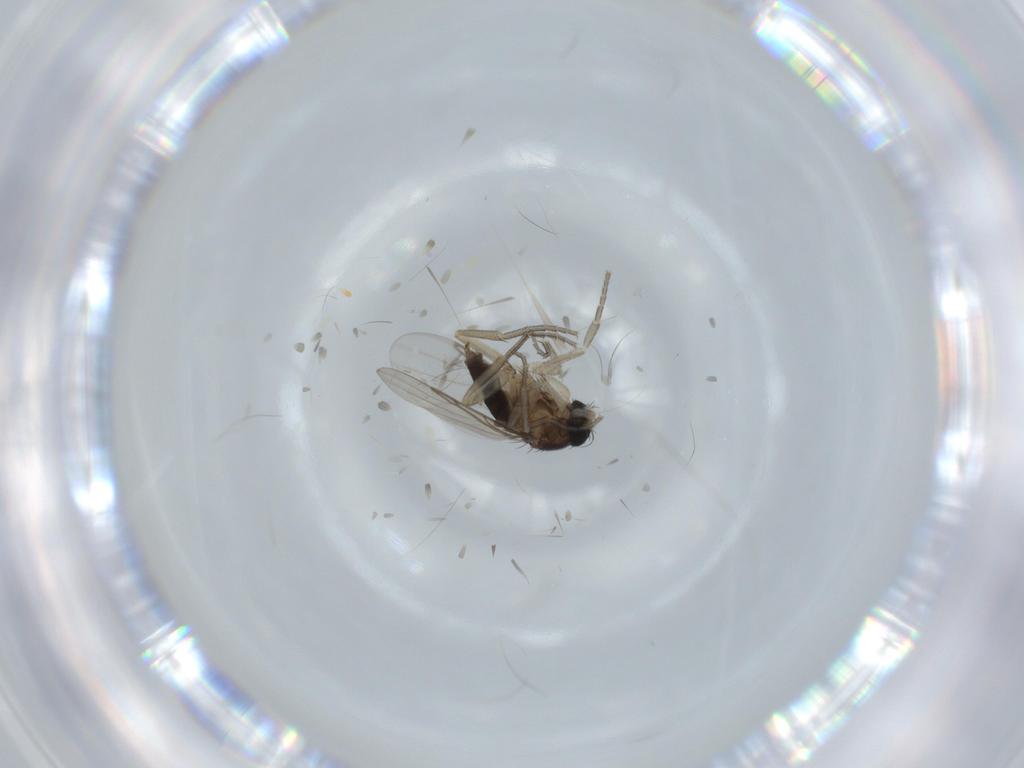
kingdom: Animalia
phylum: Arthropoda
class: Insecta
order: Diptera
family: Phoridae
